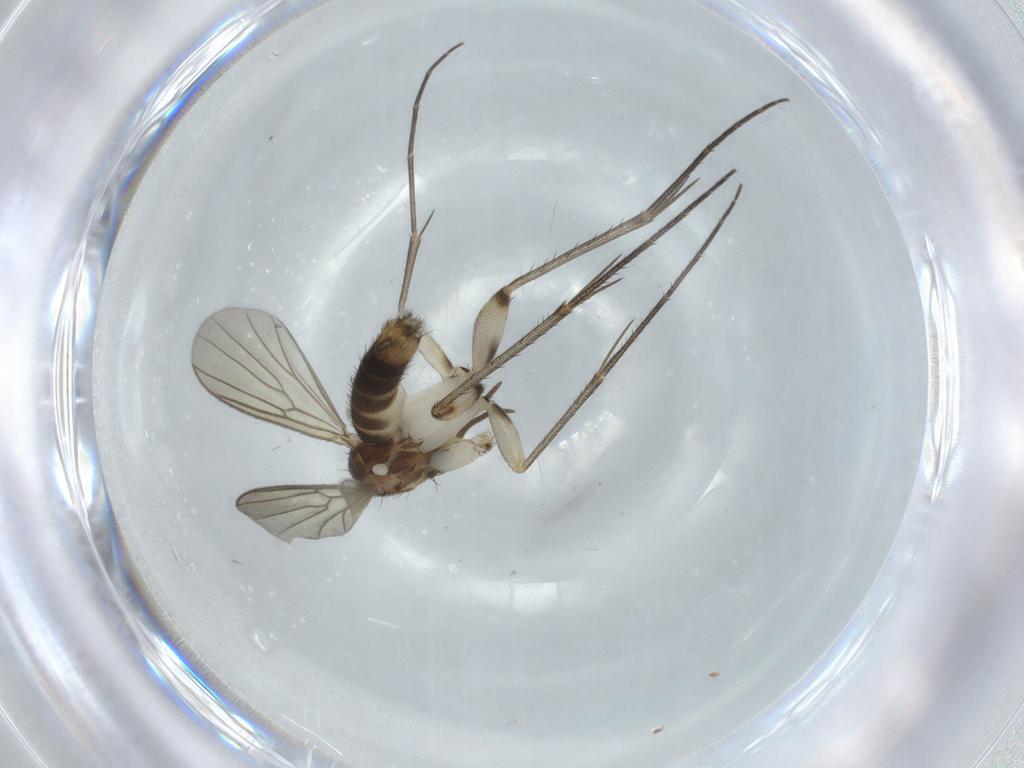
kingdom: Animalia
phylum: Arthropoda
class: Insecta
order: Diptera
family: Mycetophilidae
